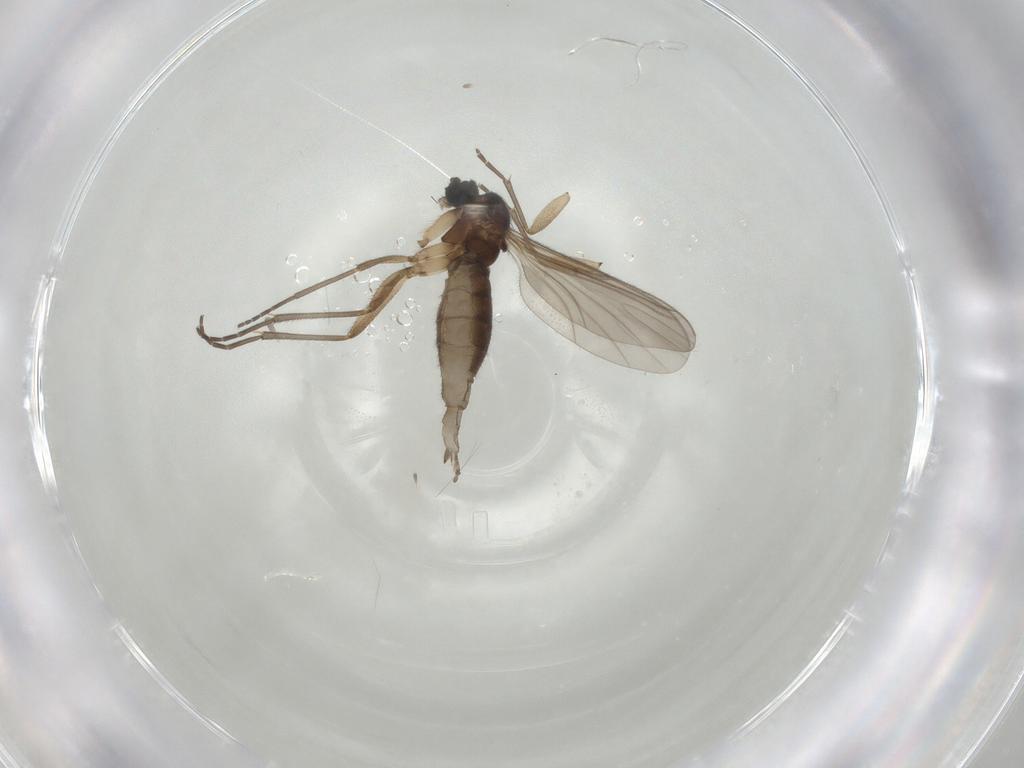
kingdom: Animalia
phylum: Arthropoda
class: Insecta
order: Diptera
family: Sciaridae
